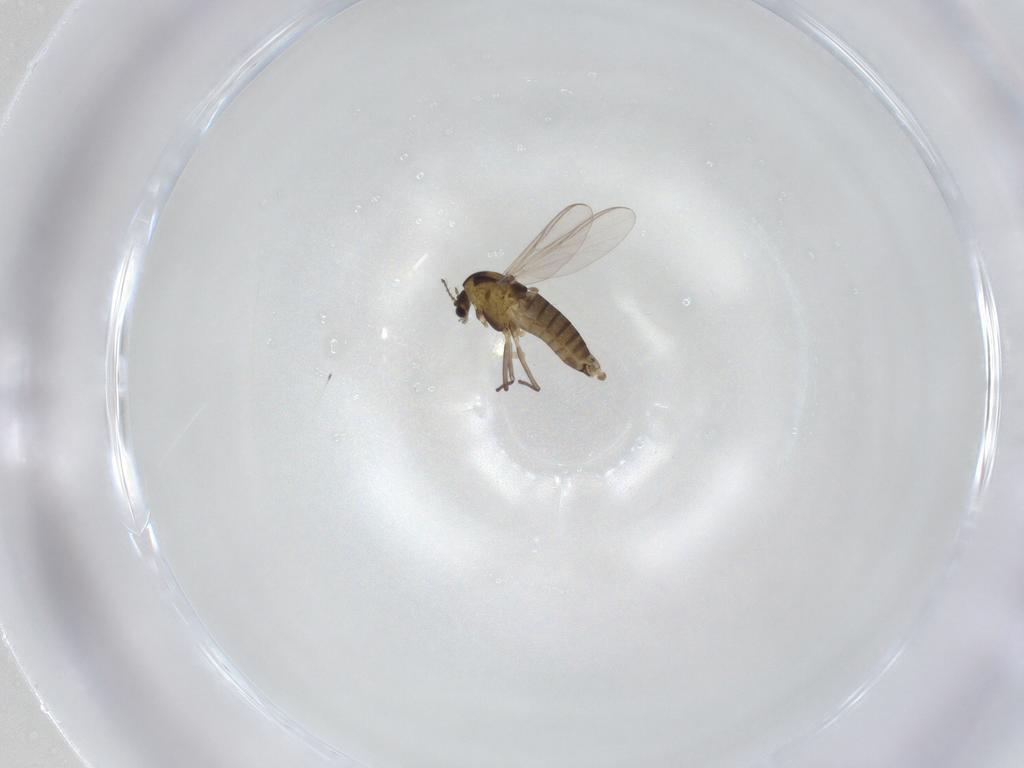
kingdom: Animalia
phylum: Arthropoda
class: Insecta
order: Diptera
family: Chironomidae
